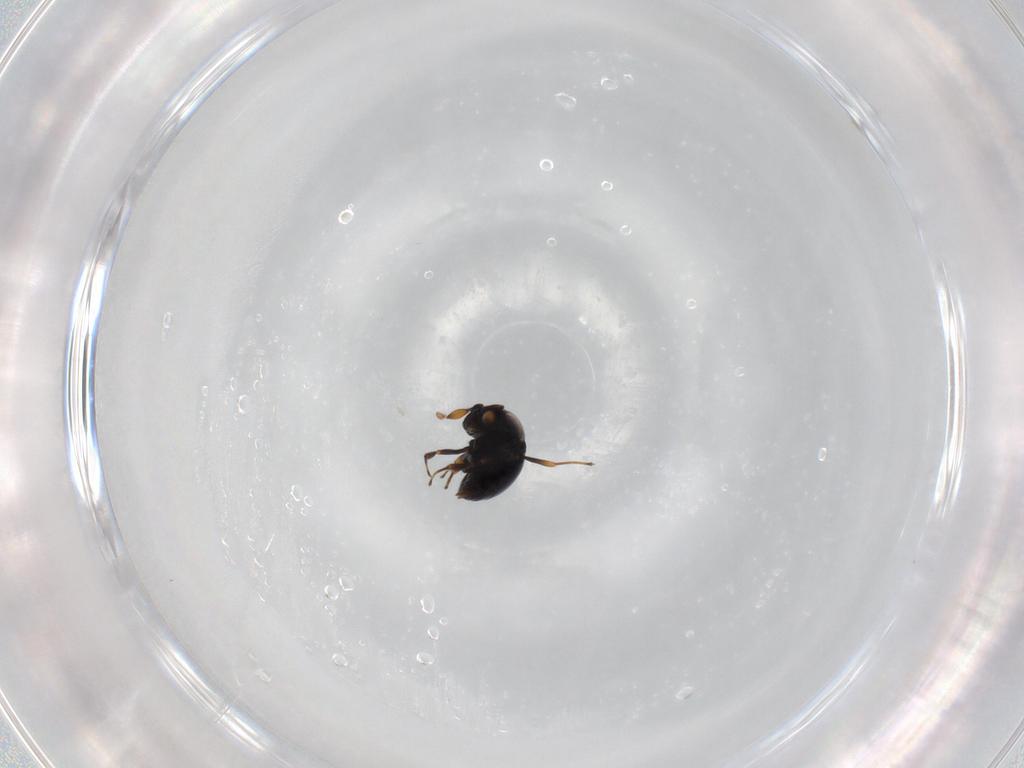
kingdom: Animalia
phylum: Arthropoda
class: Insecta
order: Hymenoptera
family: Scelionidae
